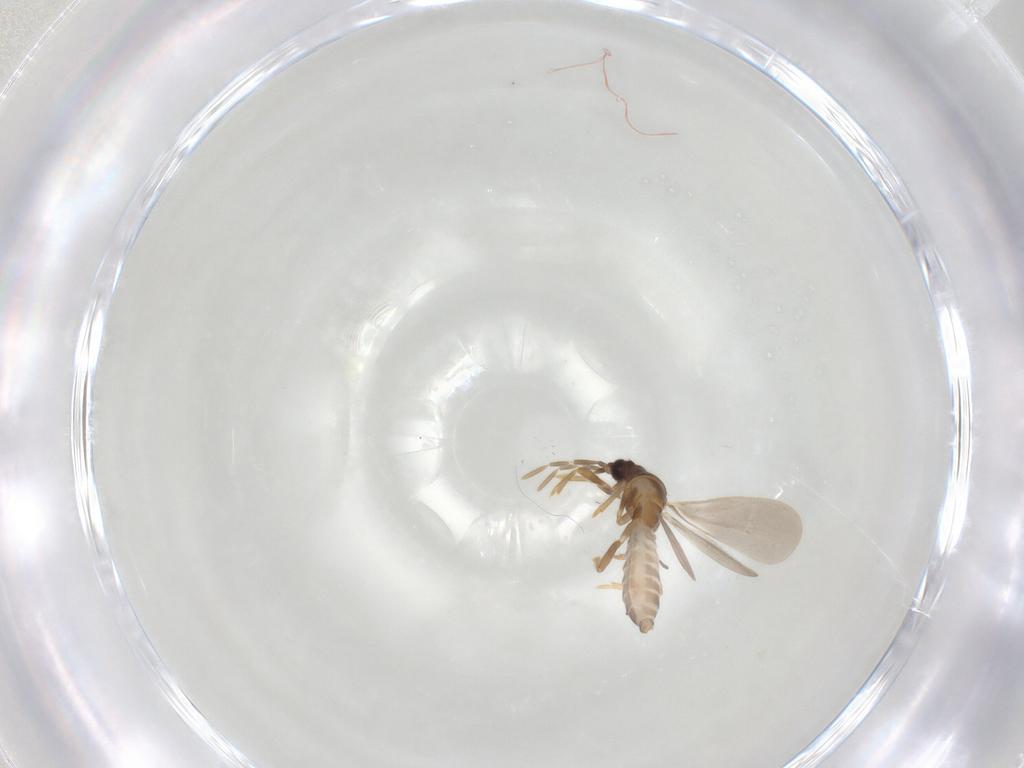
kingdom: Animalia
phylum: Arthropoda
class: Insecta
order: Hemiptera
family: Enicocephalidae
